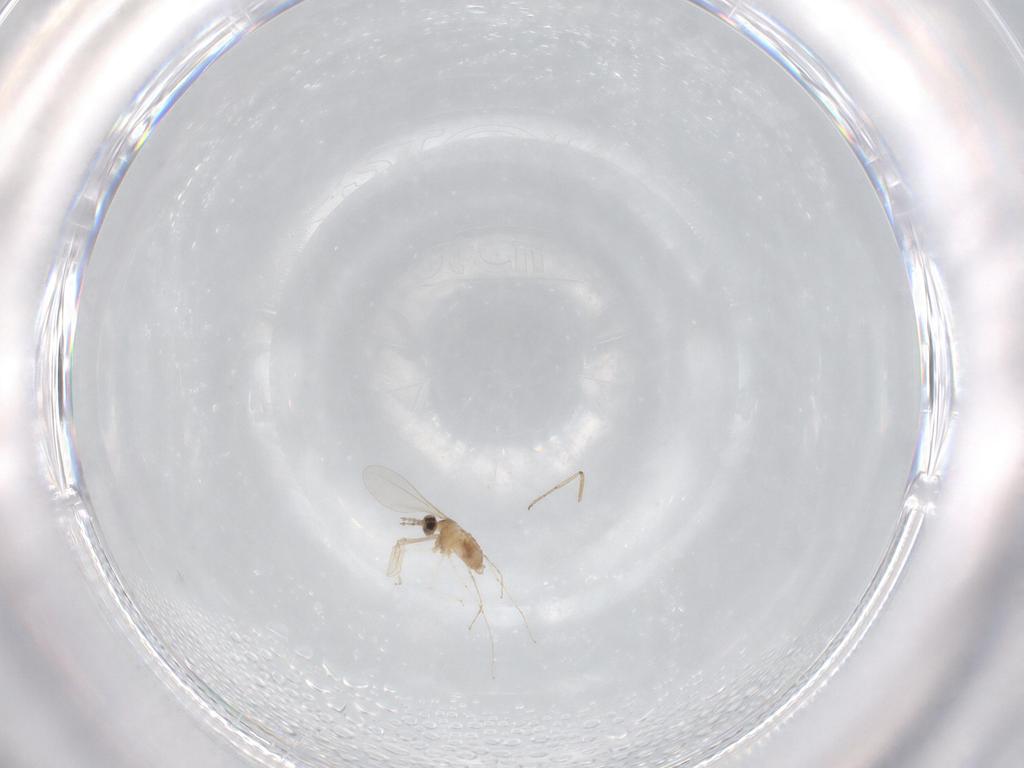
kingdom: Animalia
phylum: Arthropoda
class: Insecta
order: Diptera
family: Cecidomyiidae
